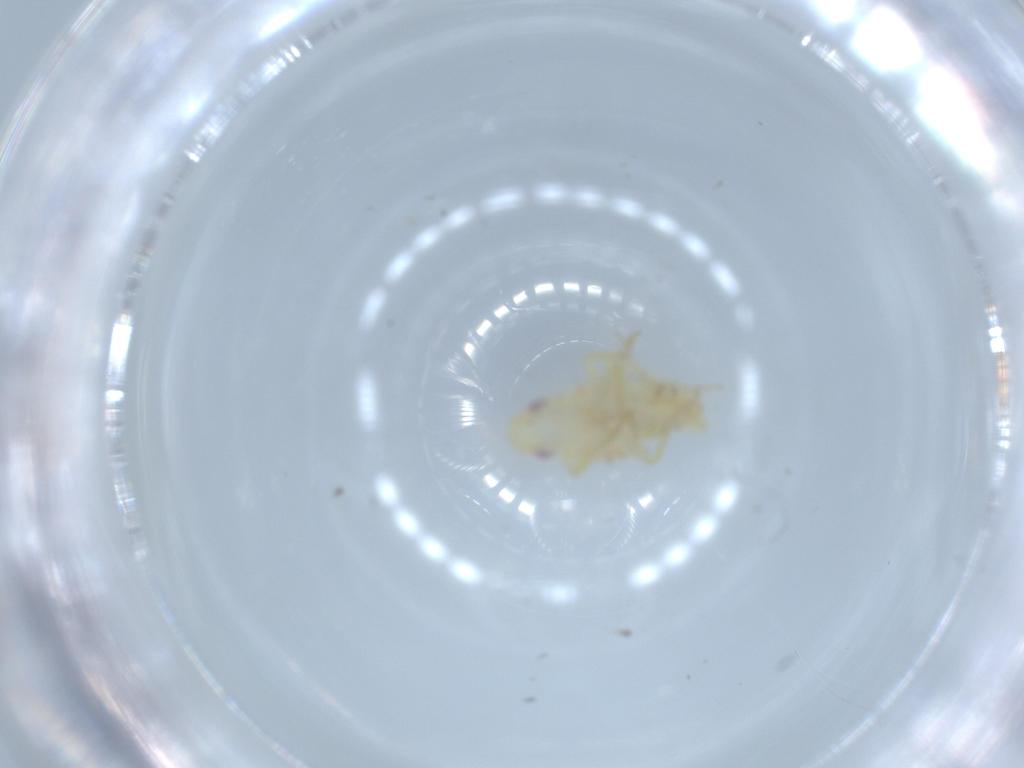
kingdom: Animalia
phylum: Arthropoda
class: Insecta
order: Hemiptera
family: Tropiduchidae
